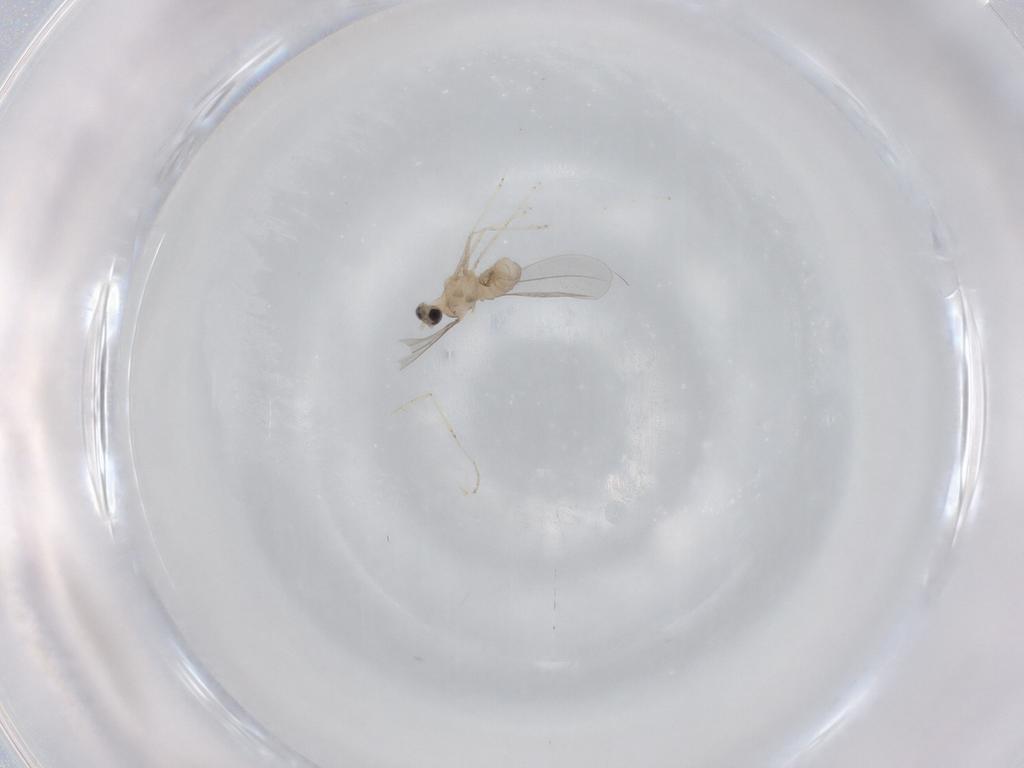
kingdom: Animalia
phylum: Arthropoda
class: Insecta
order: Diptera
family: Cecidomyiidae
